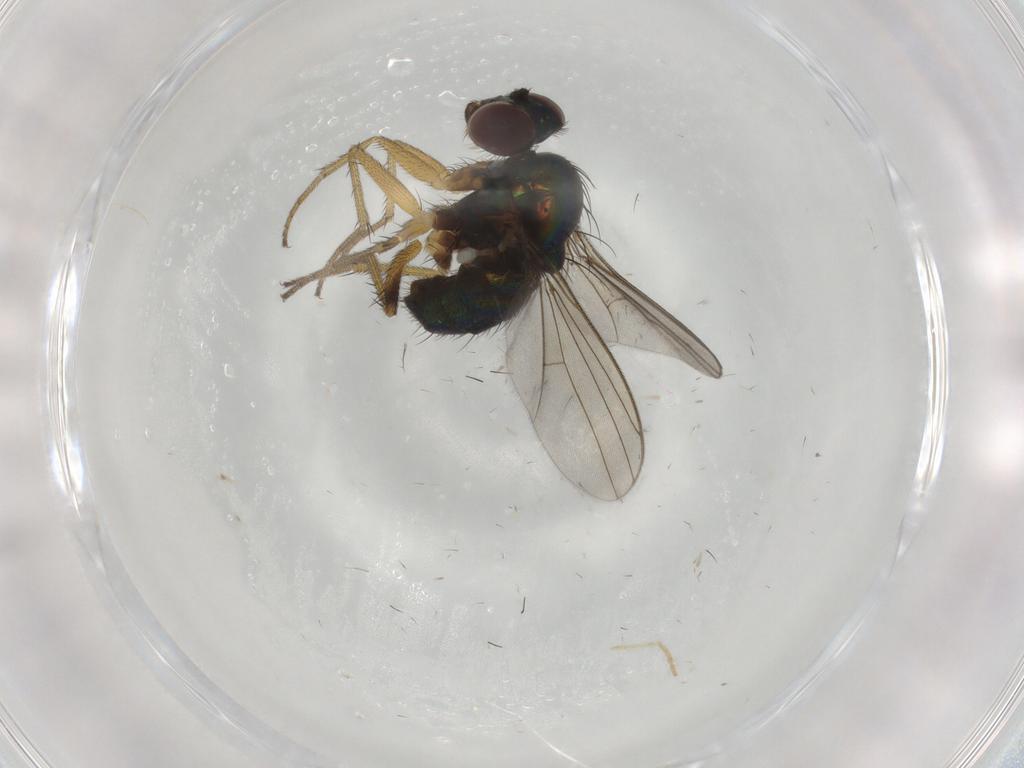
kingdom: Animalia
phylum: Arthropoda
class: Insecta
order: Diptera
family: Dolichopodidae
